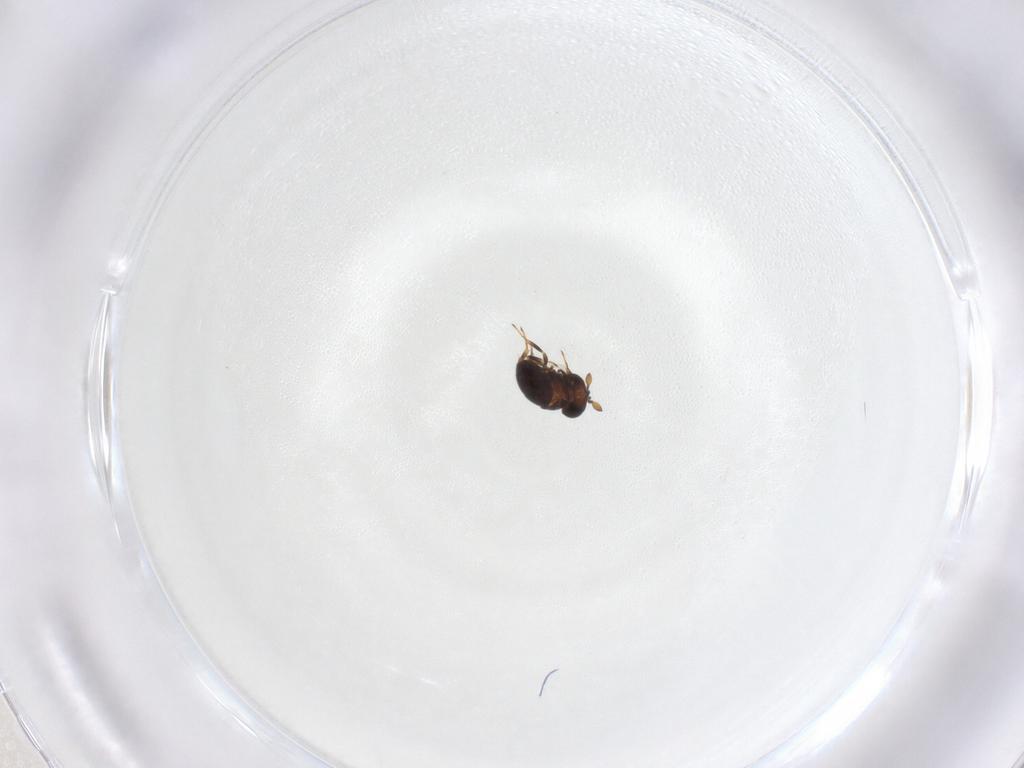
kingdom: Animalia
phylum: Arthropoda
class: Insecta
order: Hymenoptera
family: Scelionidae
